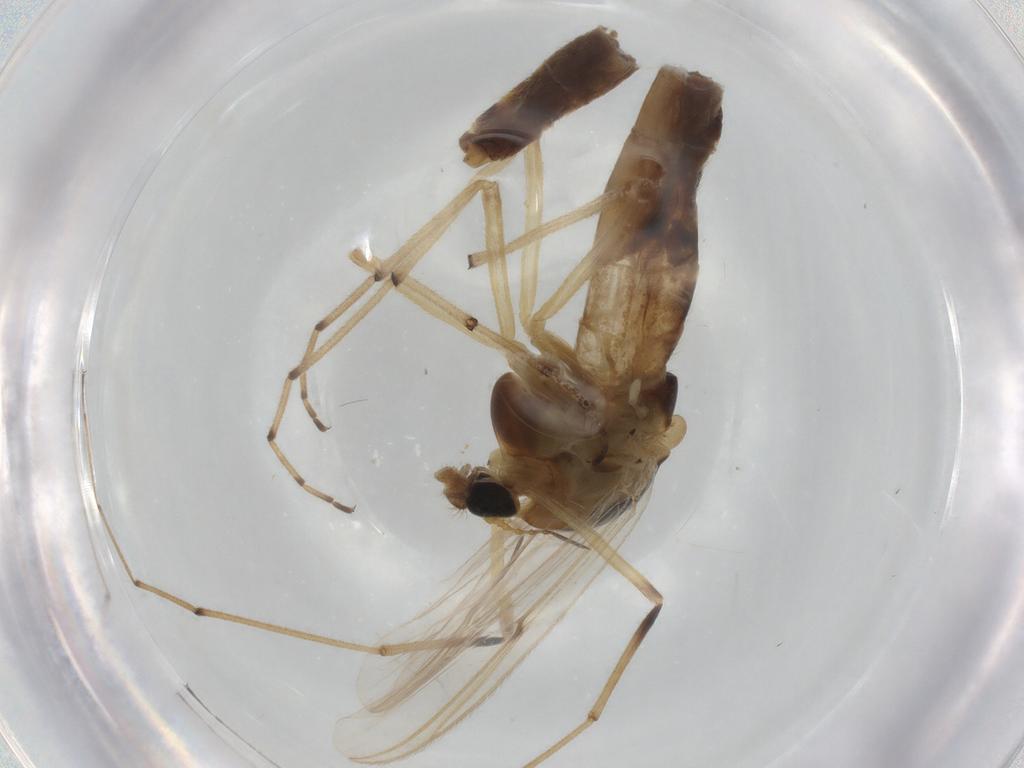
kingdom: Animalia
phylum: Arthropoda
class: Insecta
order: Diptera
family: Chironomidae
